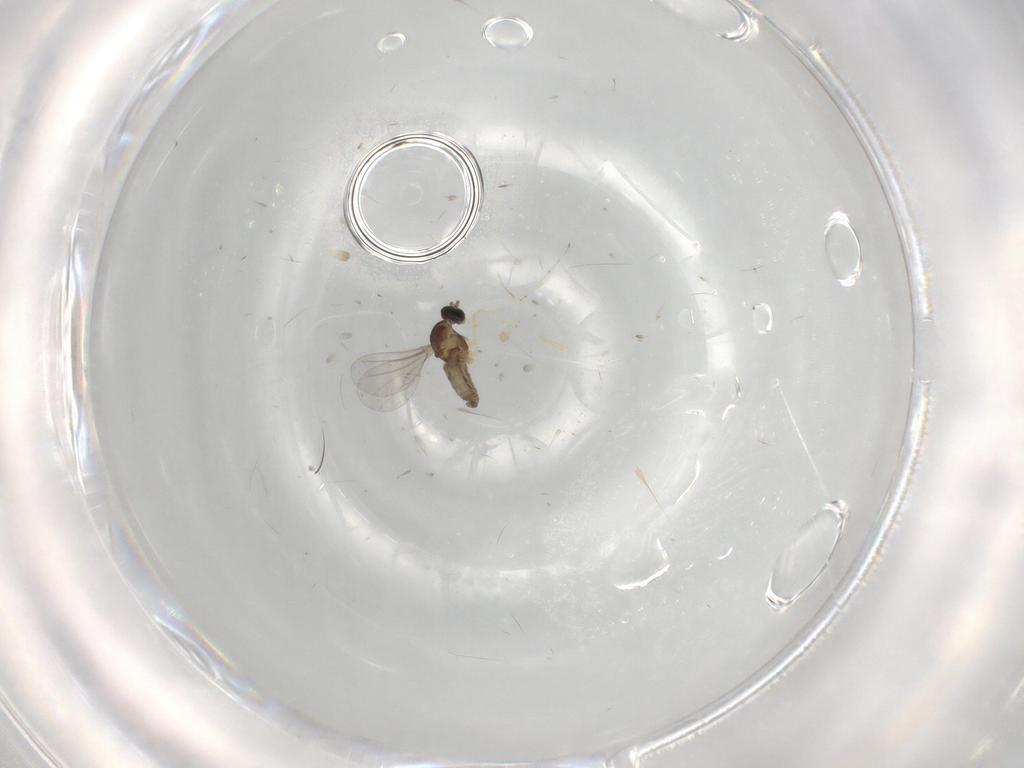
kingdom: Animalia
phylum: Arthropoda
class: Insecta
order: Diptera
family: Cecidomyiidae
